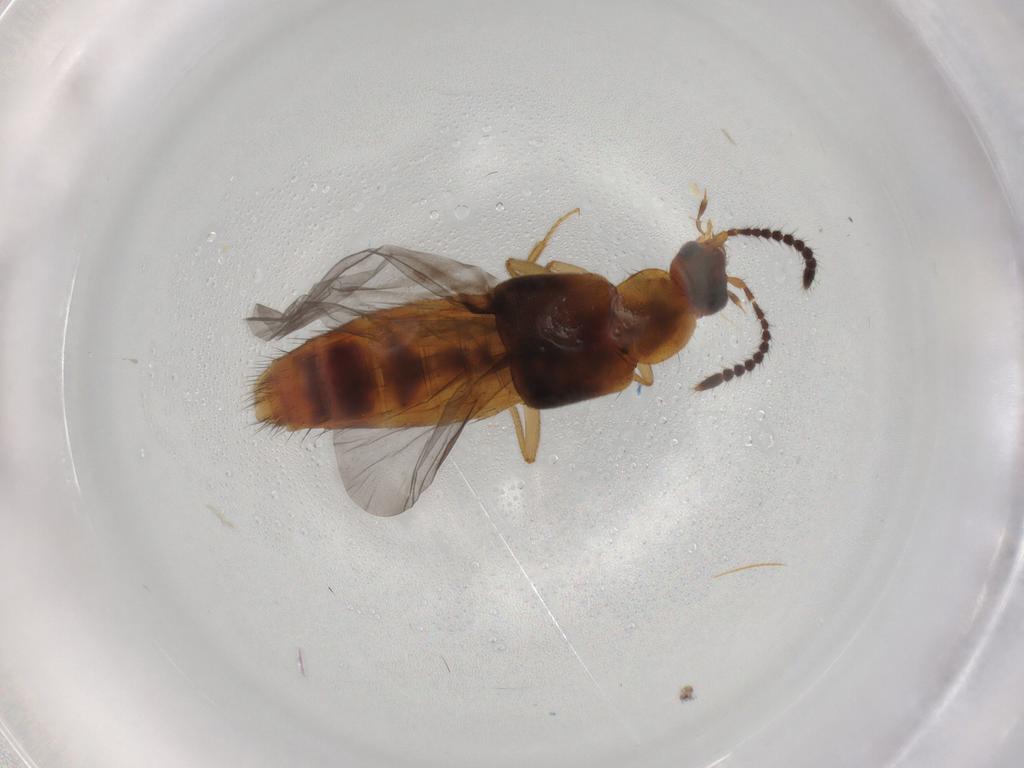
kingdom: Animalia
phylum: Arthropoda
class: Insecta
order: Coleoptera
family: Staphylinidae
